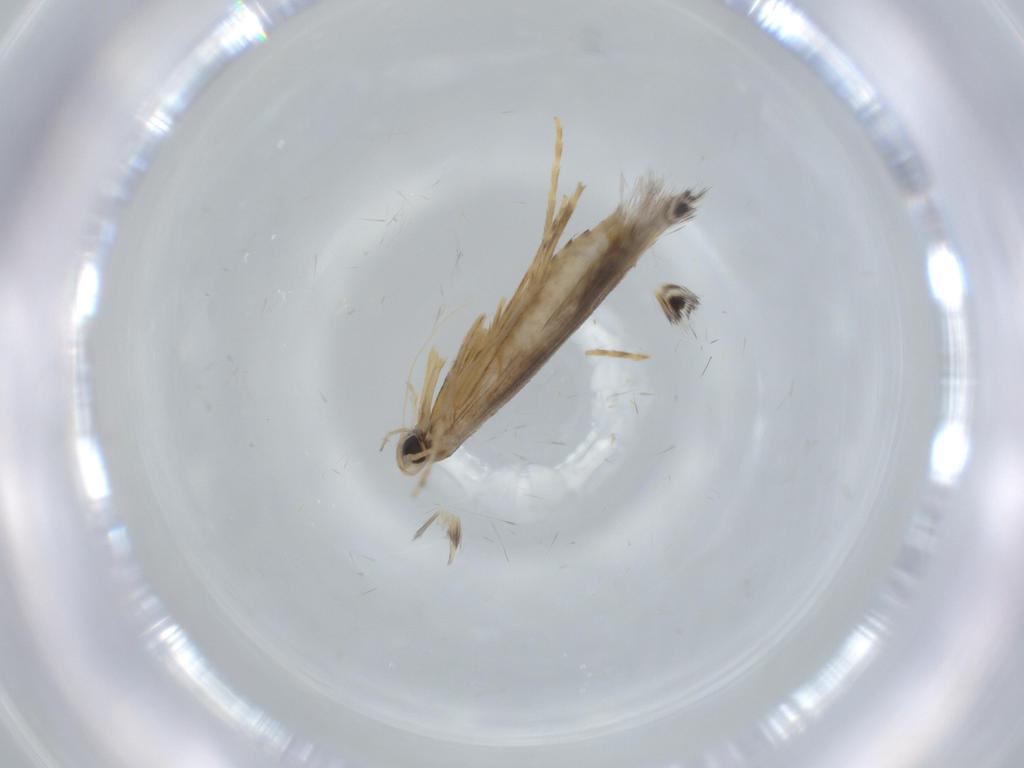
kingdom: Animalia
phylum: Arthropoda
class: Insecta
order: Lepidoptera
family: Gracillariidae
